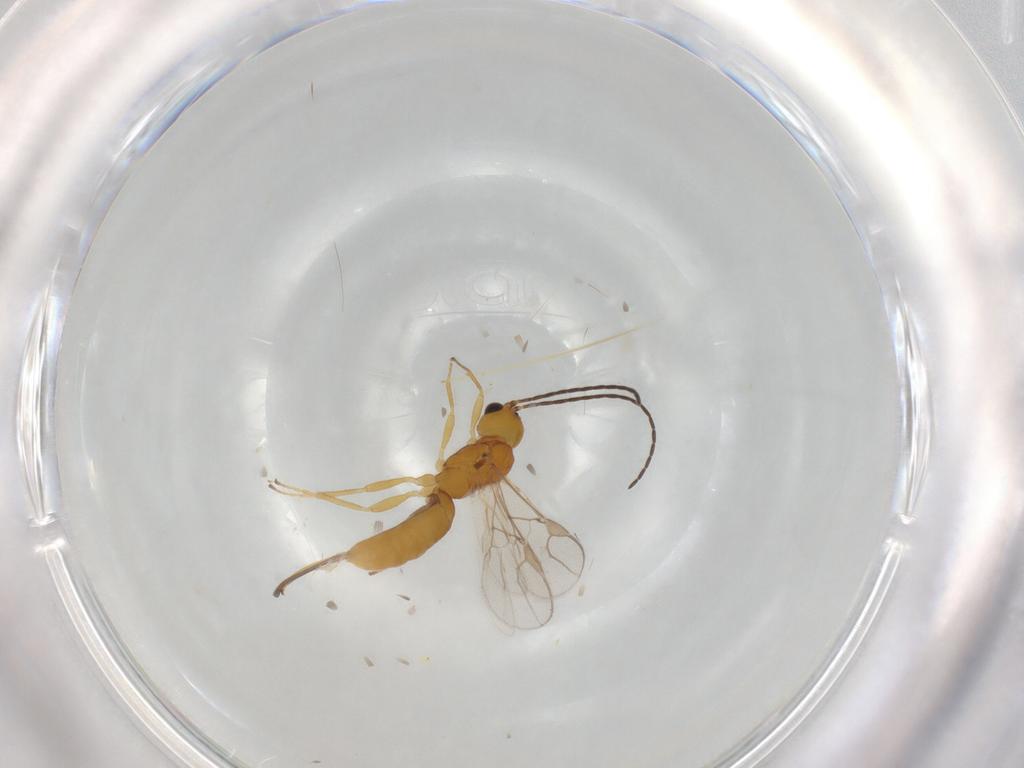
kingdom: Animalia
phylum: Arthropoda
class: Insecta
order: Hymenoptera
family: Braconidae
